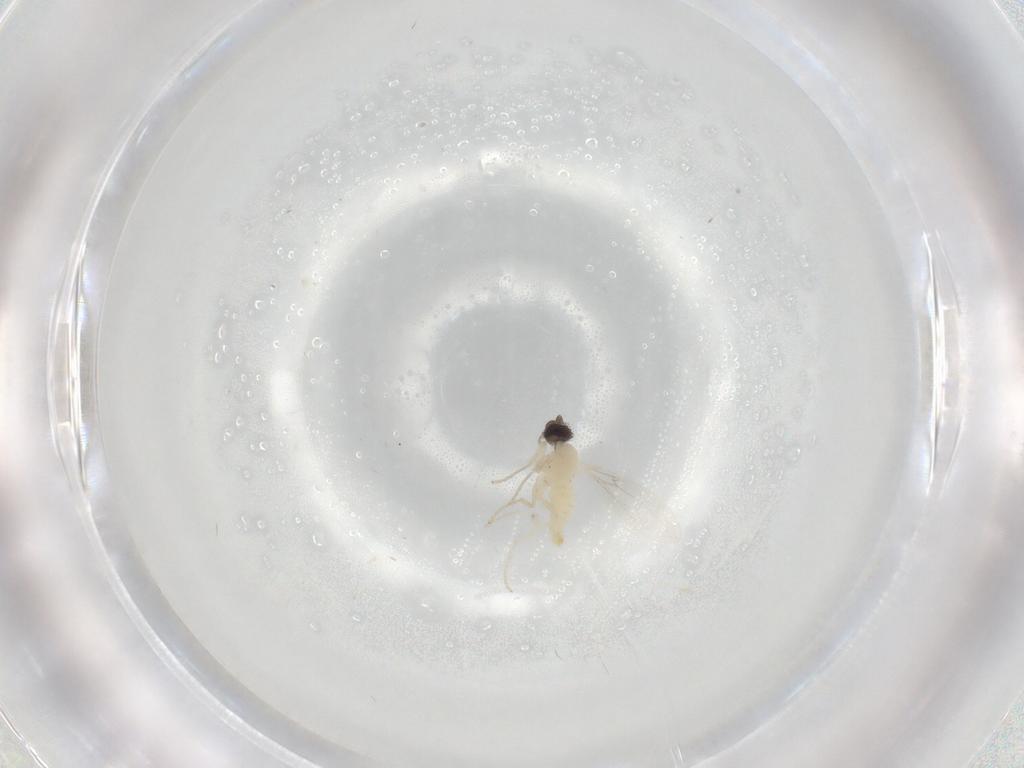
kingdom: Animalia
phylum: Arthropoda
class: Insecta
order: Diptera
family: Cecidomyiidae
